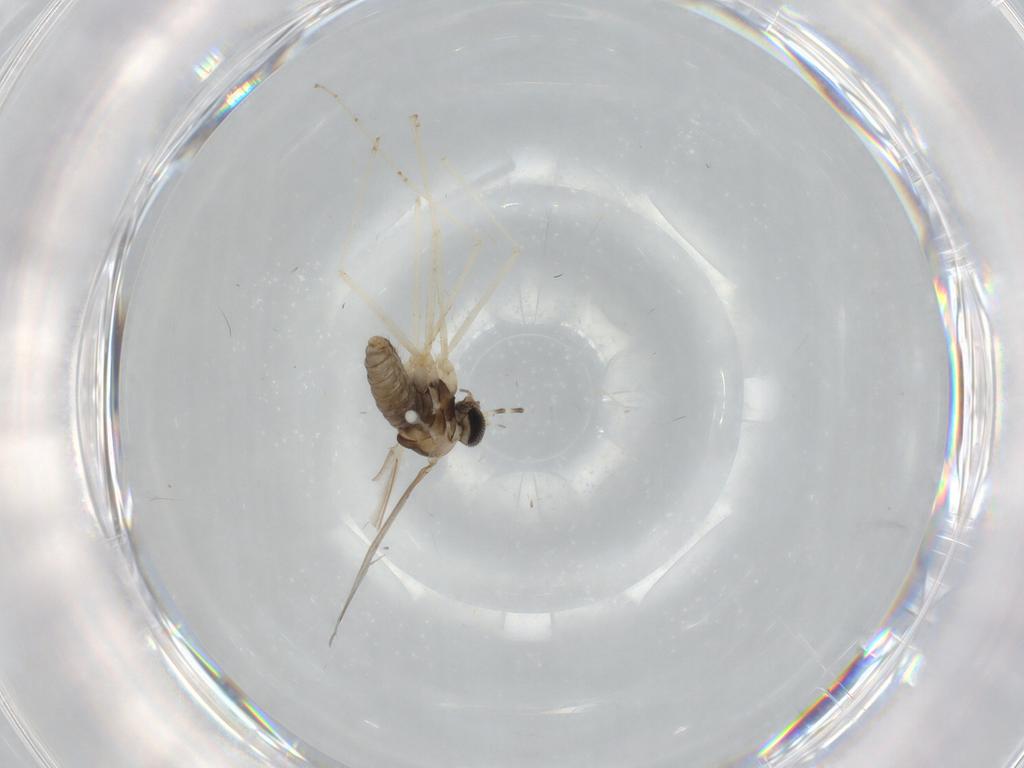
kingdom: Animalia
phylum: Arthropoda
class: Insecta
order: Diptera
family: Cecidomyiidae
